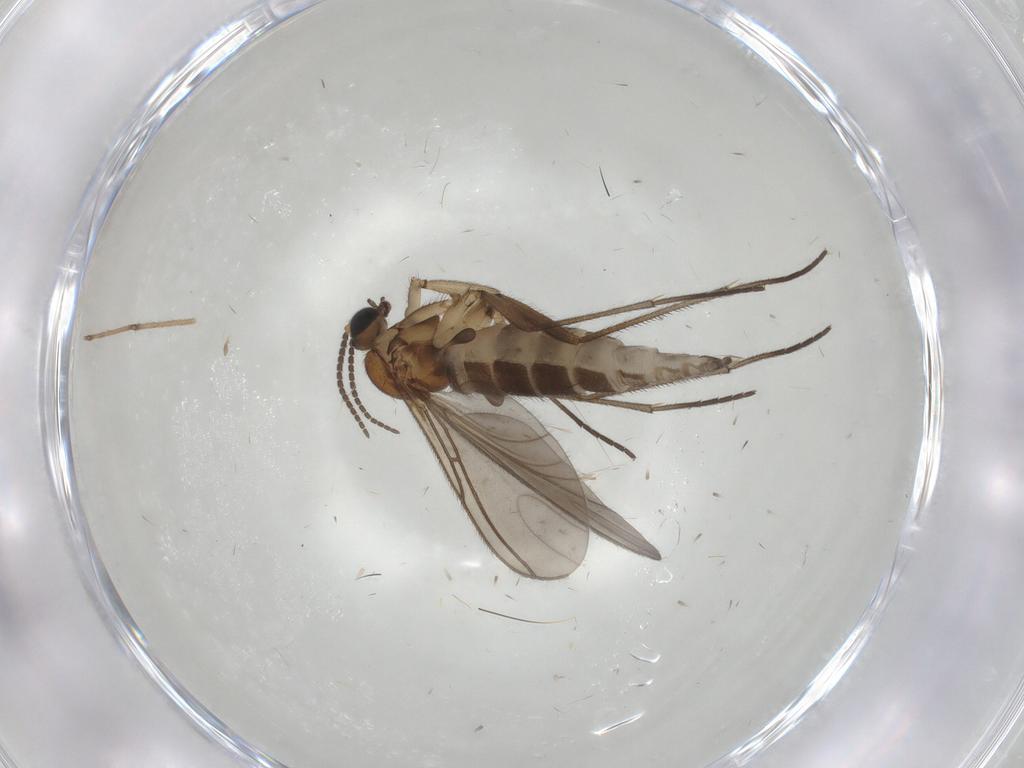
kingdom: Animalia
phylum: Arthropoda
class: Insecta
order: Diptera
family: Sciaridae
